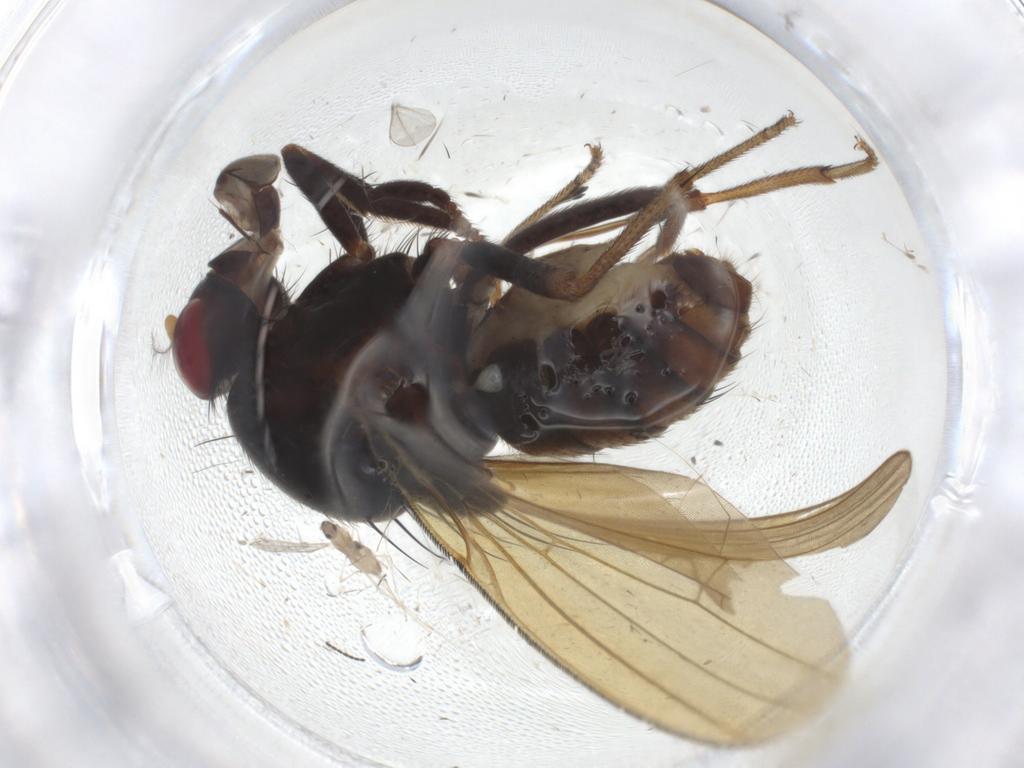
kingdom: Animalia
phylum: Arthropoda
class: Insecta
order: Diptera
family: Cecidomyiidae
